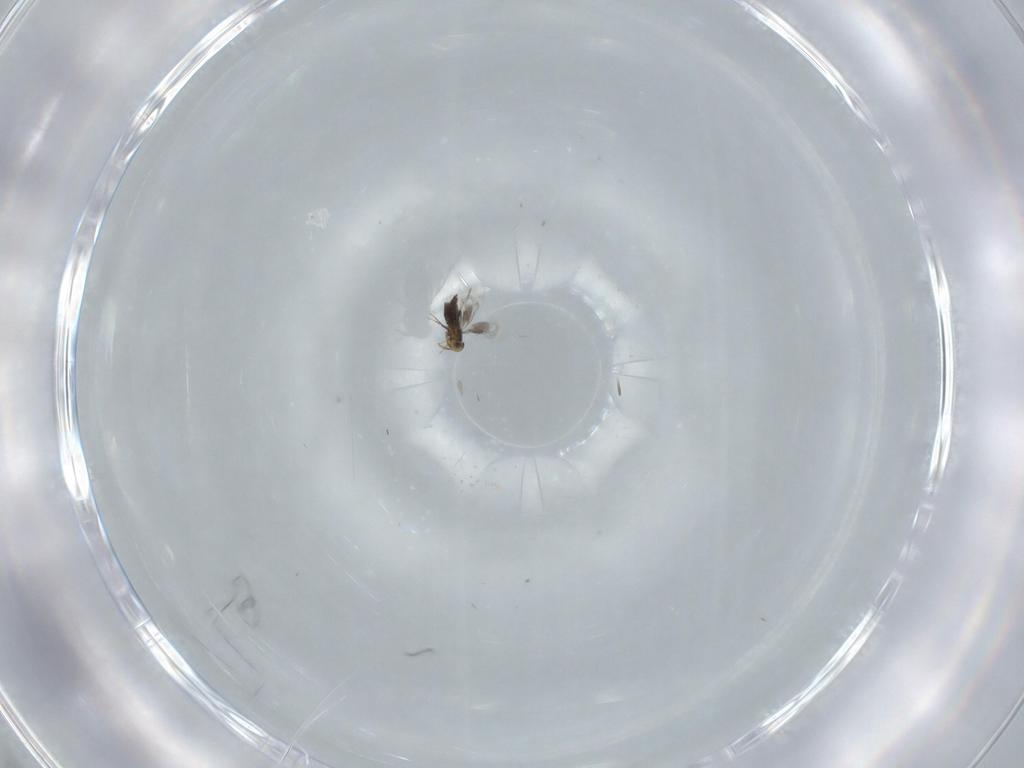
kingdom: Animalia
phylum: Arthropoda
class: Insecta
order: Hymenoptera
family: Signiphoridae
